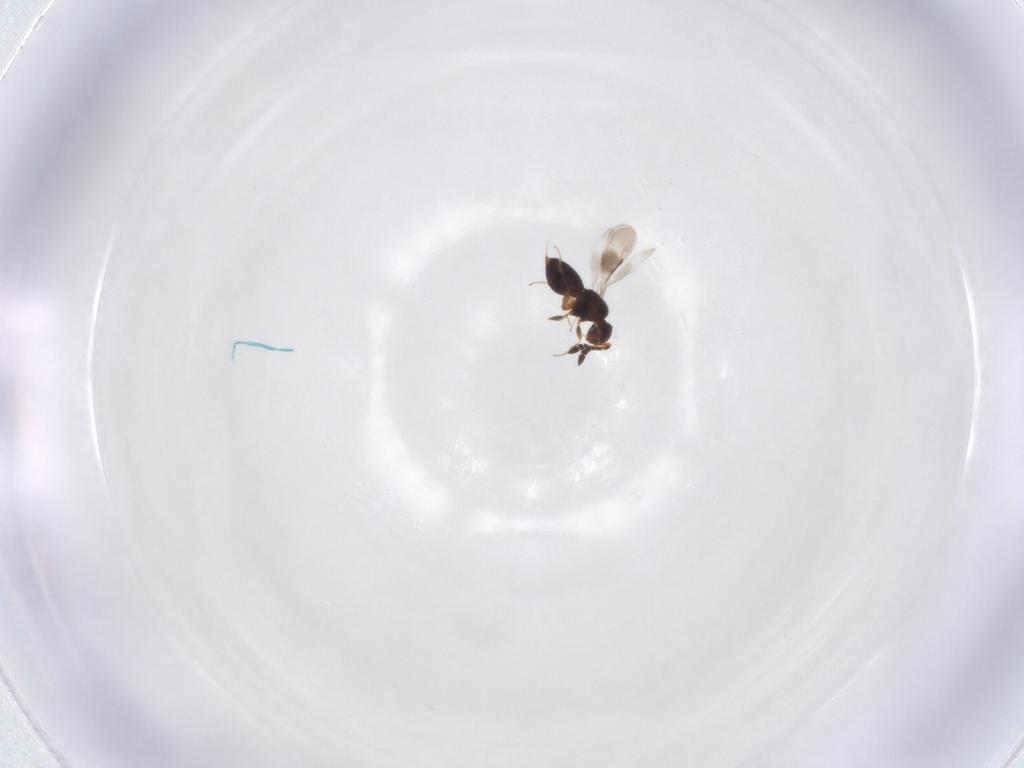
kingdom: Animalia
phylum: Arthropoda
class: Insecta
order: Hymenoptera
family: Ceraphronidae
